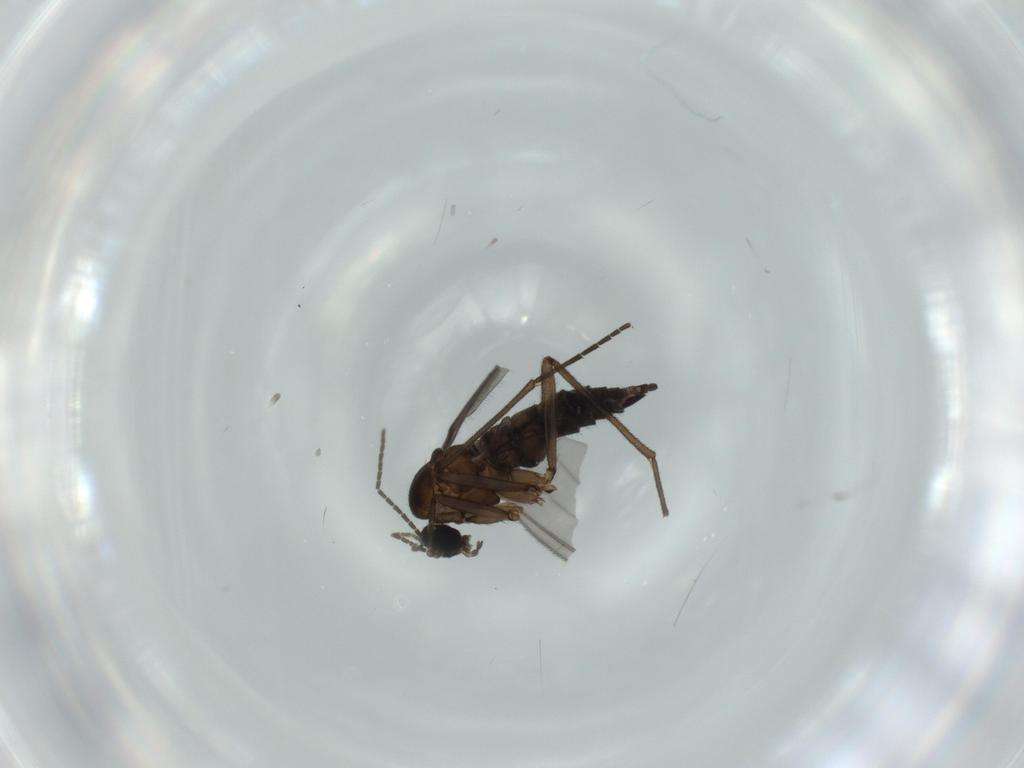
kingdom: Animalia
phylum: Arthropoda
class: Insecta
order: Diptera
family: Sciaridae
